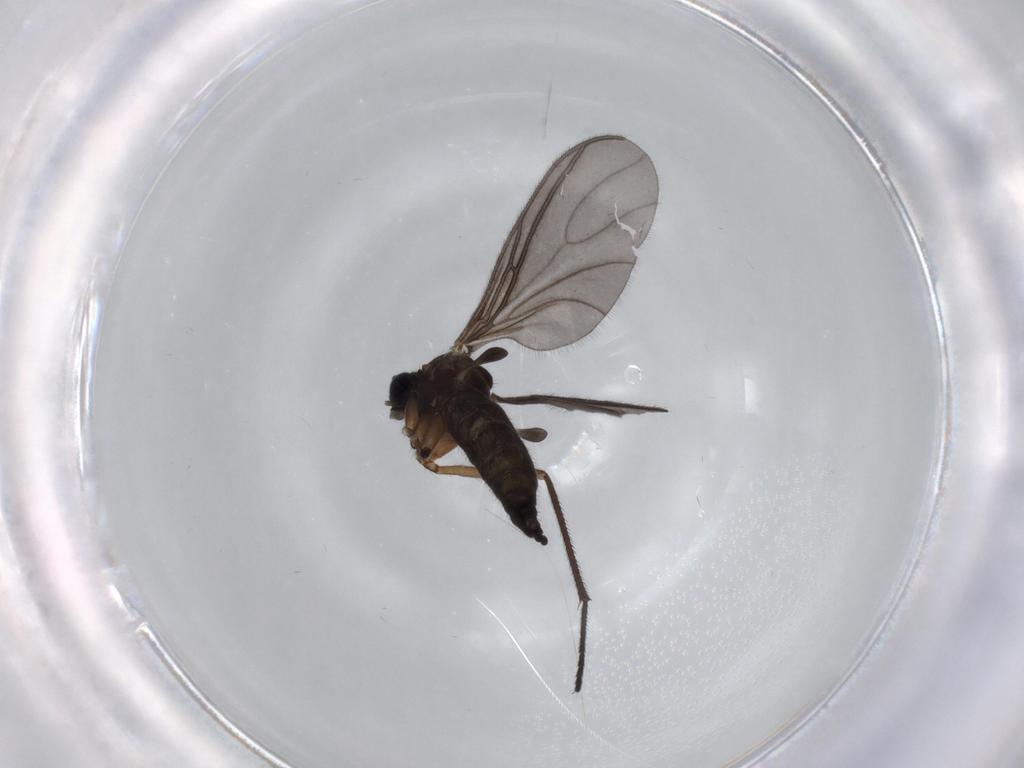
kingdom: Animalia
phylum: Arthropoda
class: Insecta
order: Diptera
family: Sciaridae
